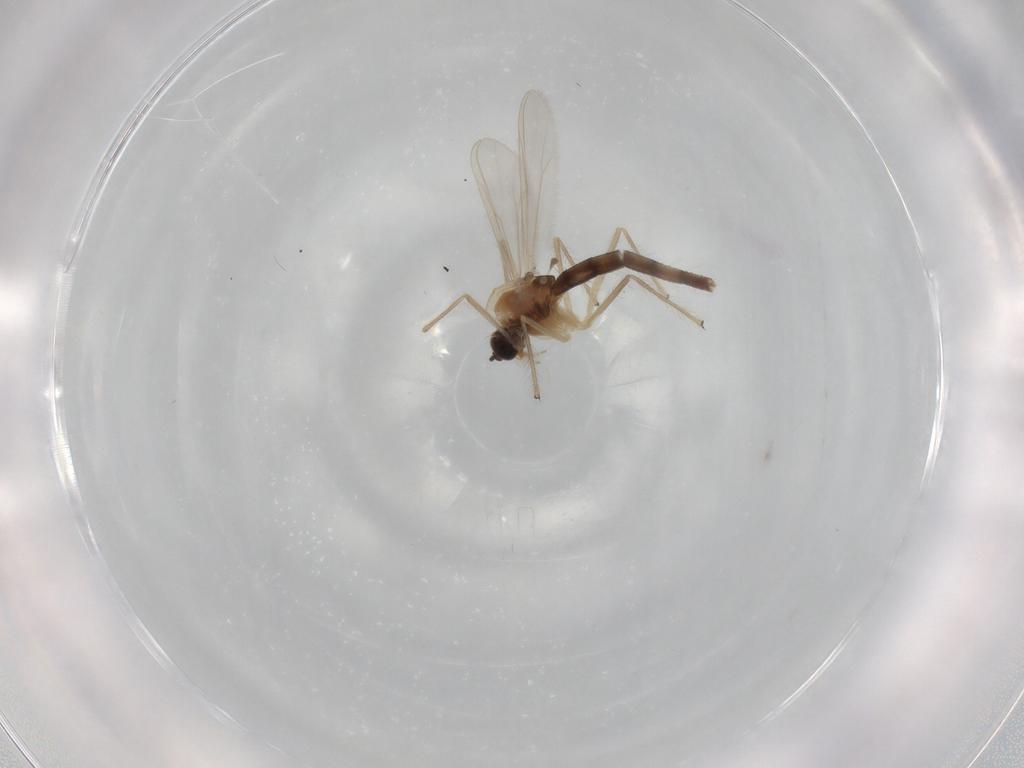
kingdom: Animalia
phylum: Arthropoda
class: Insecta
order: Diptera
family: Chironomidae
